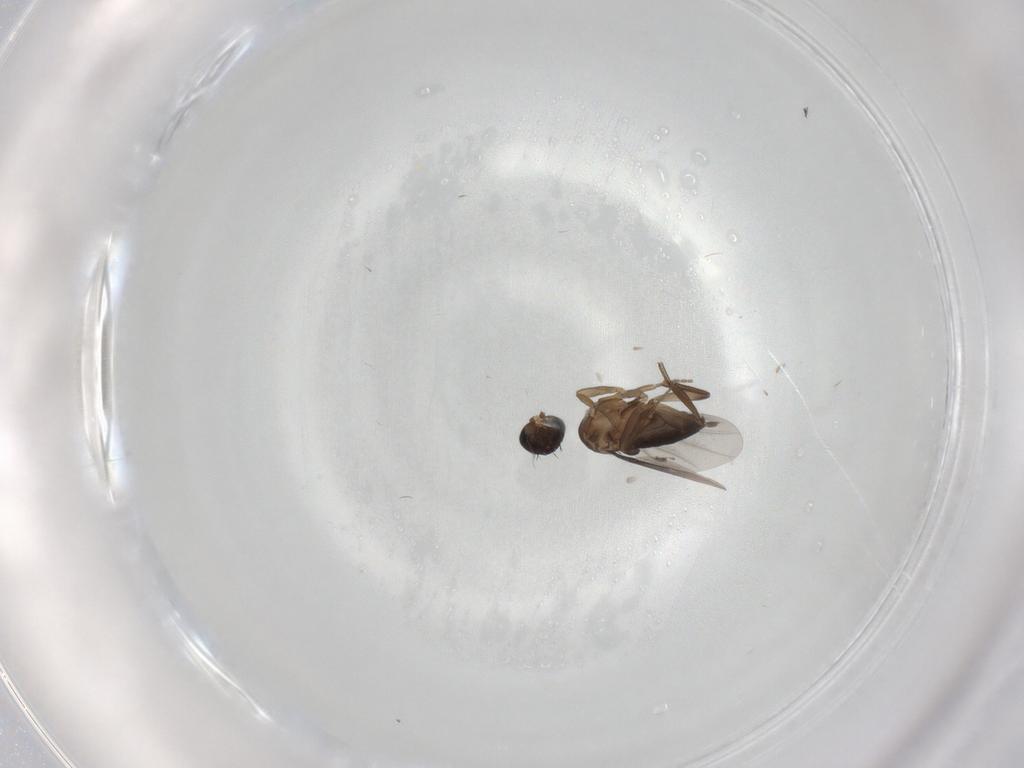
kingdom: Animalia
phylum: Arthropoda
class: Insecta
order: Diptera
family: Phoridae
